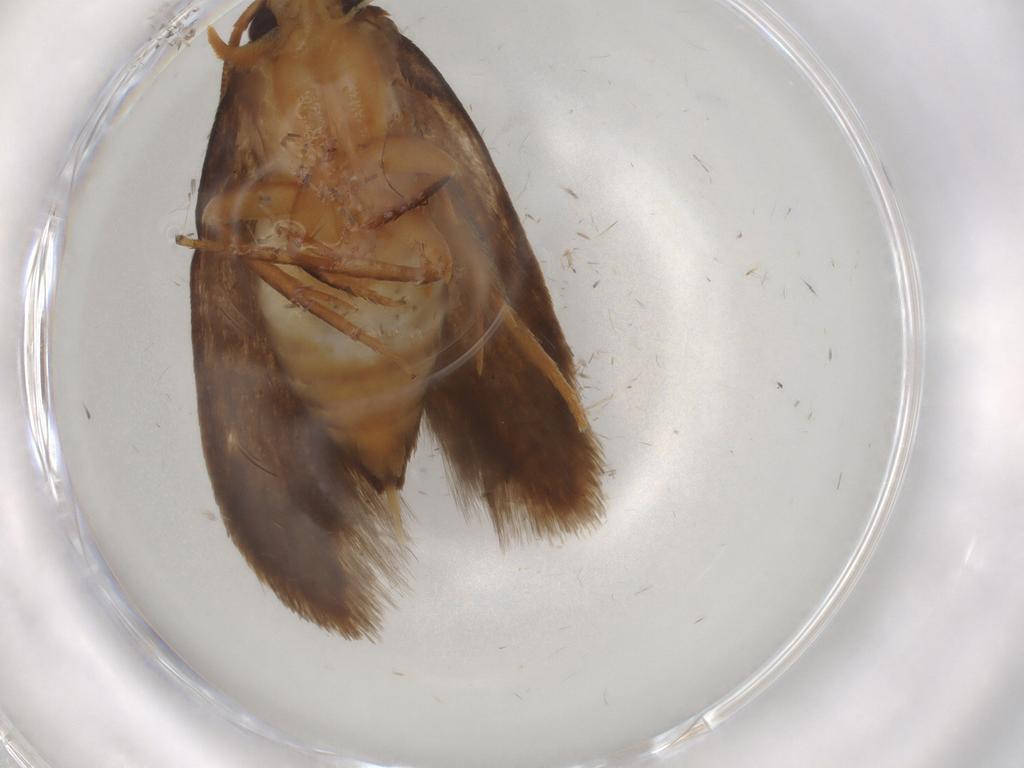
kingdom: Animalia
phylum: Arthropoda
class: Insecta
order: Lepidoptera
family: Tineidae
